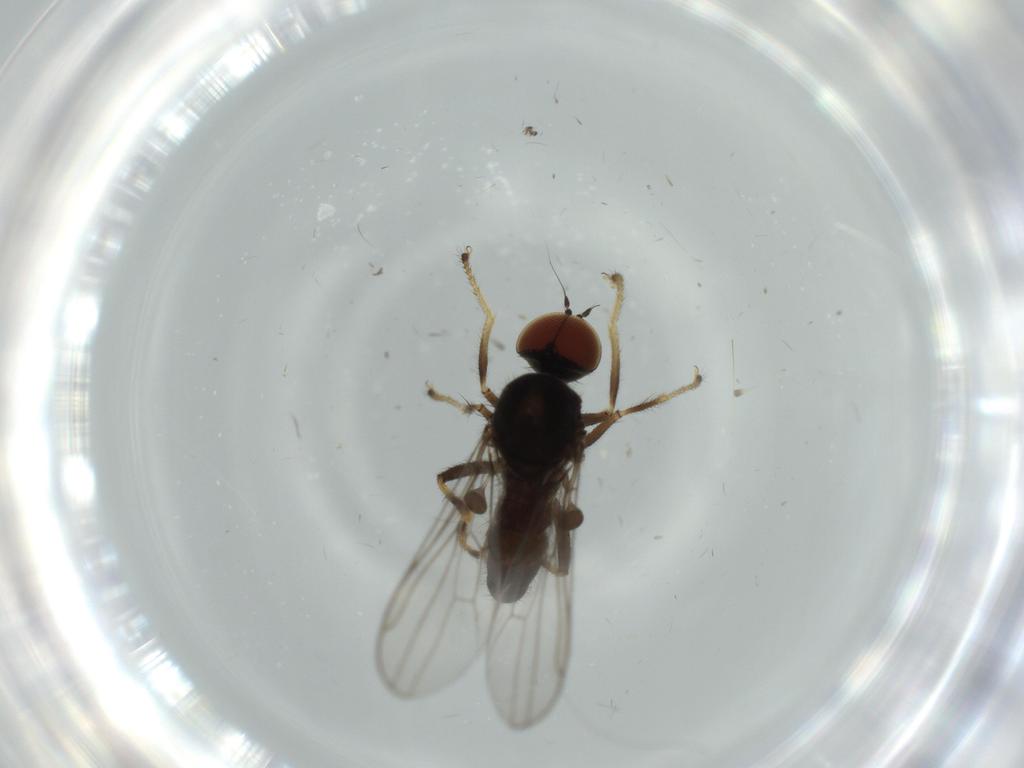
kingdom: Animalia
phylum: Arthropoda
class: Insecta
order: Diptera
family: Hybotidae
